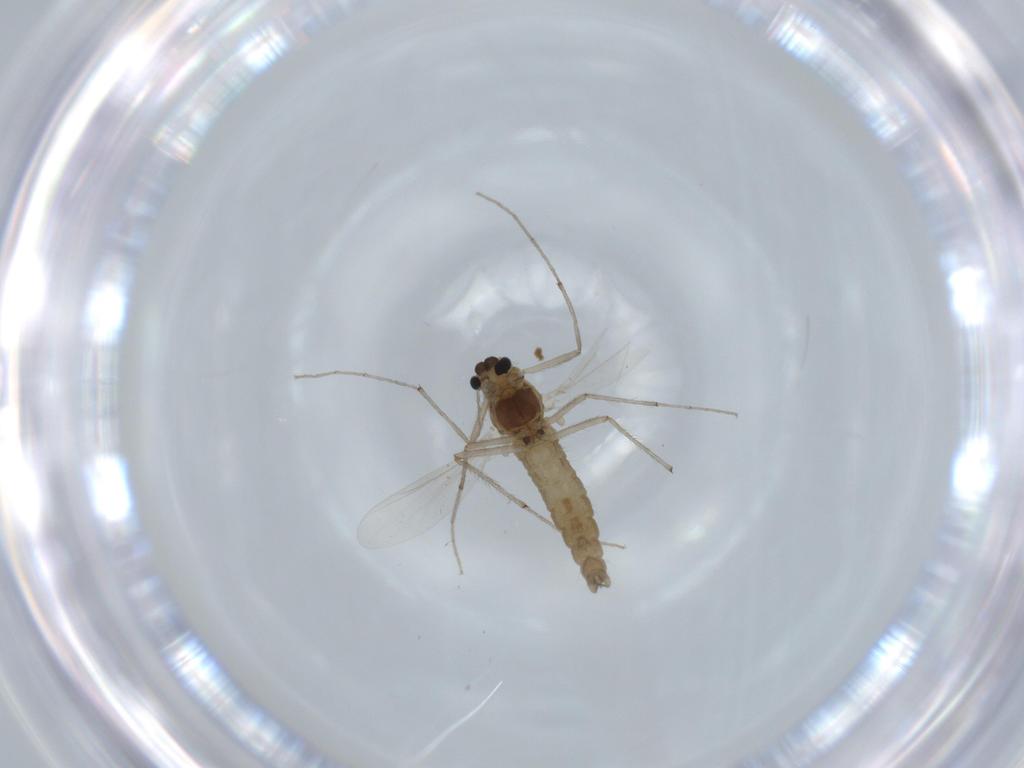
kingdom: Animalia
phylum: Arthropoda
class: Insecta
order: Diptera
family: Chironomidae
